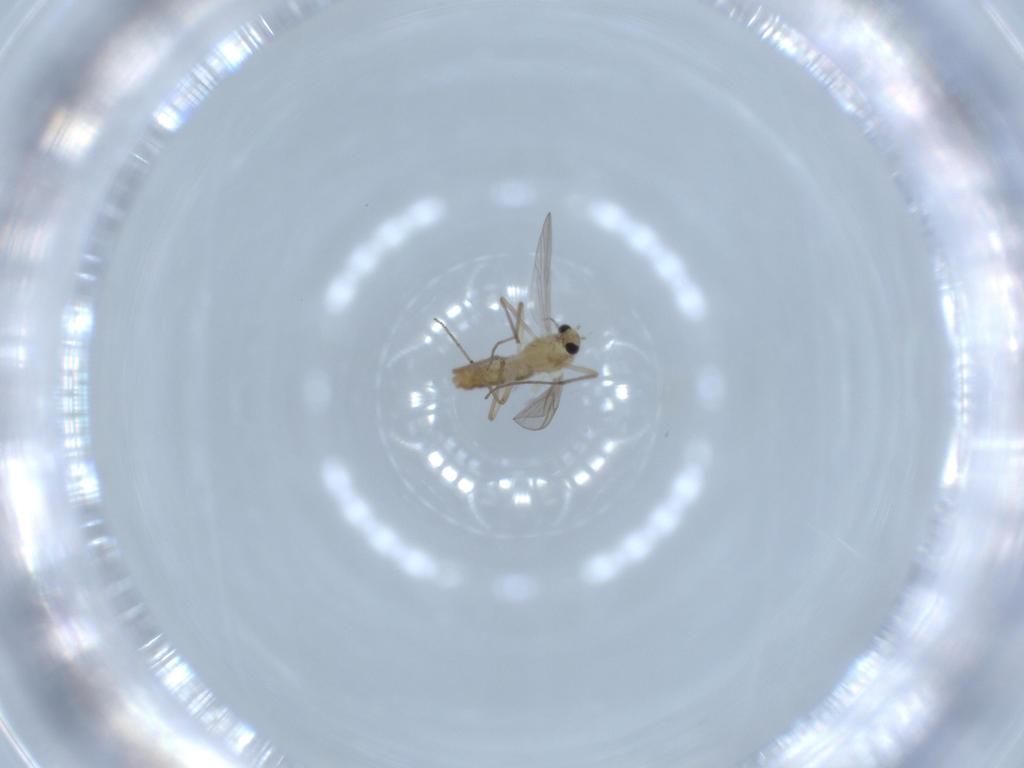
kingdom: Animalia
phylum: Arthropoda
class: Insecta
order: Diptera
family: Chironomidae
